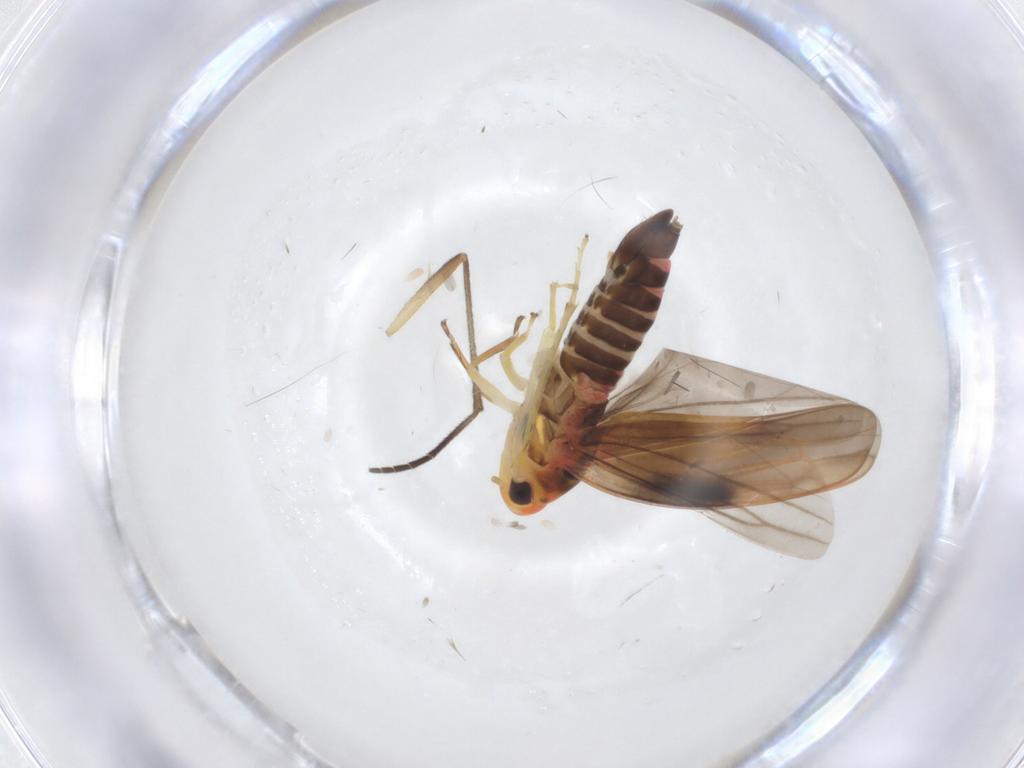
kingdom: Animalia
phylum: Arthropoda
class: Insecta
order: Hemiptera
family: Cicadellidae
